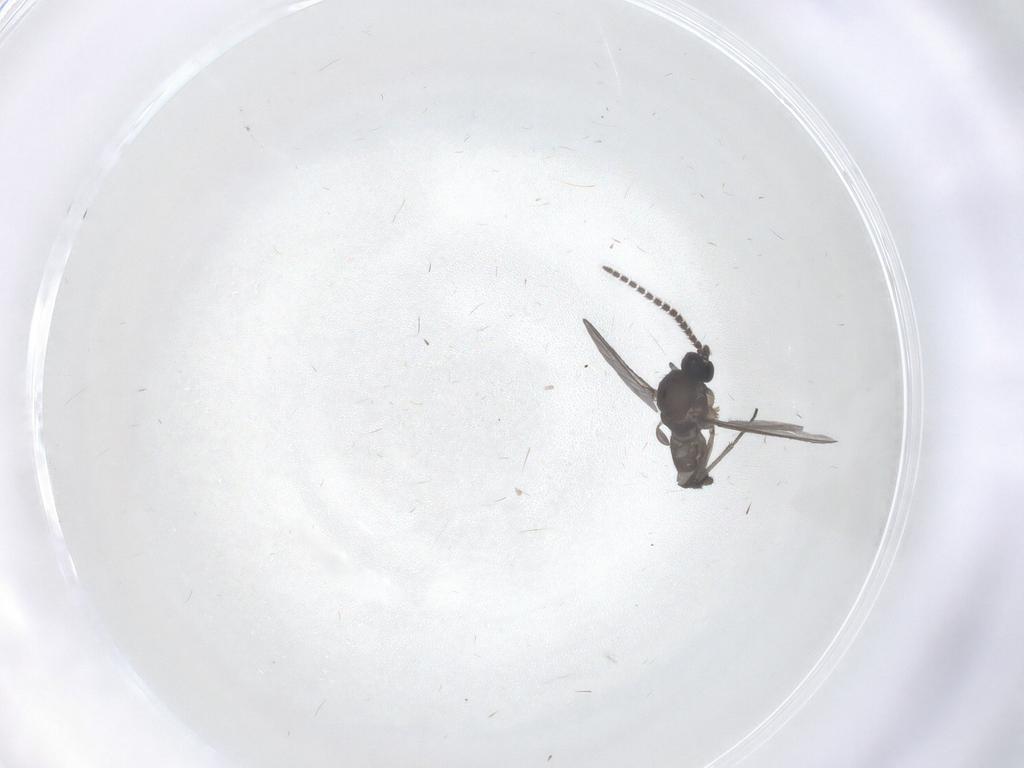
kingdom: Animalia
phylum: Arthropoda
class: Insecta
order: Diptera
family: Sciaridae
